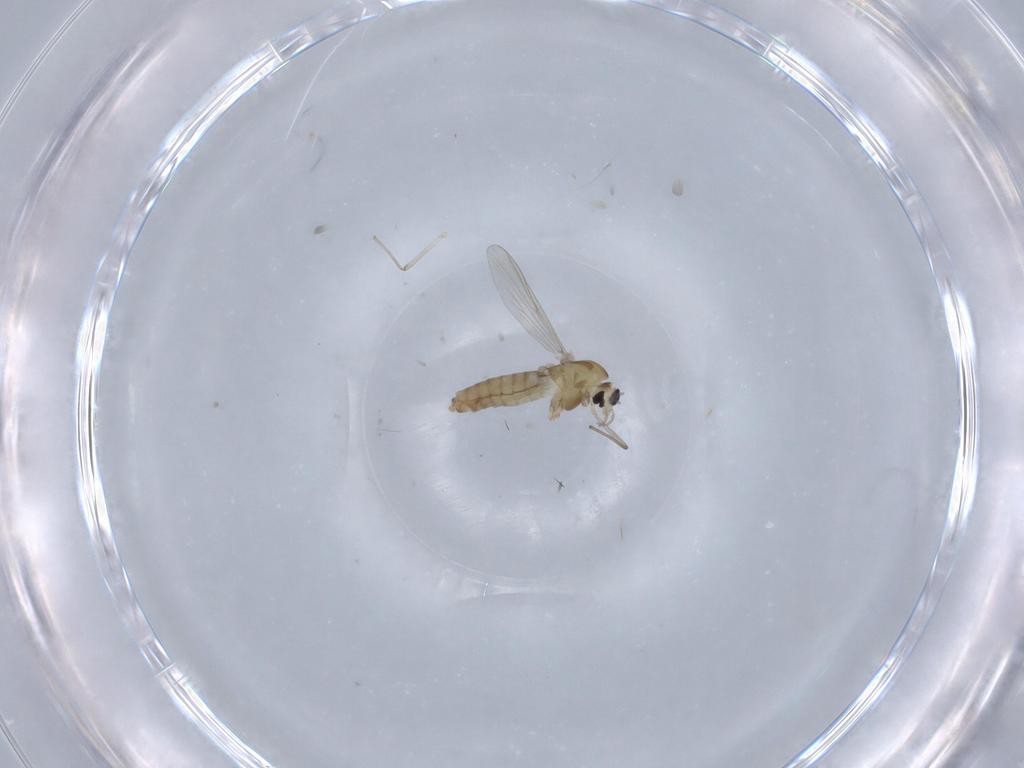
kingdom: Animalia
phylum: Arthropoda
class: Insecta
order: Diptera
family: Chironomidae
